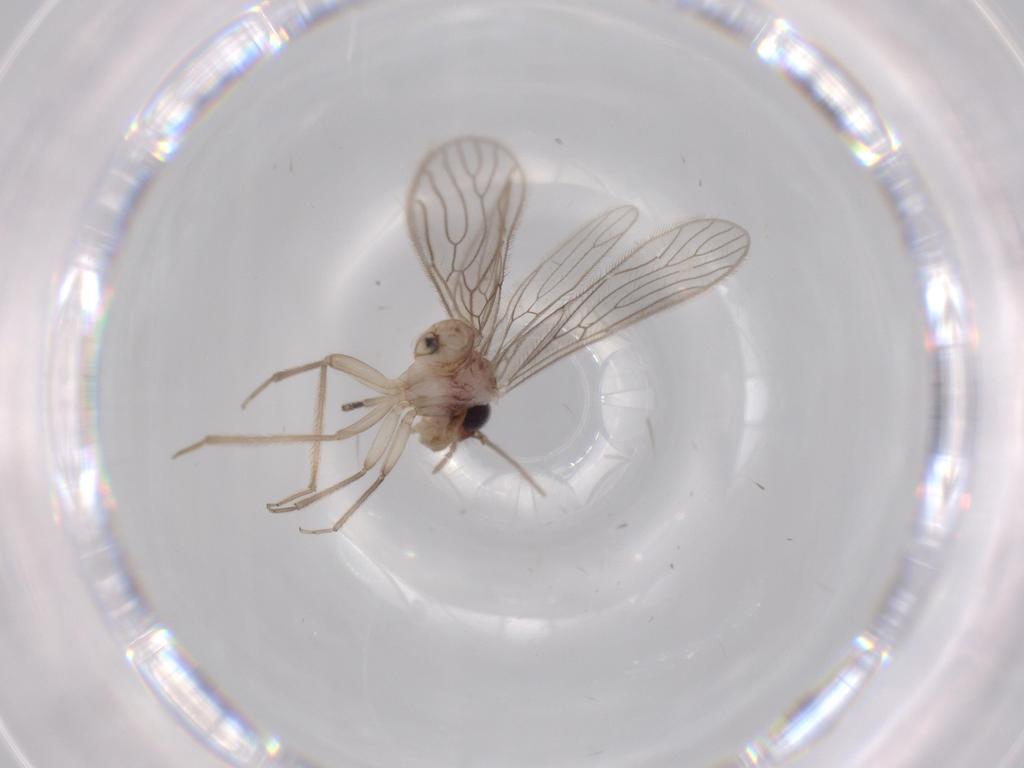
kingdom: Animalia
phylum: Arthropoda
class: Insecta
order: Psocodea
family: Cladiopsocidae
